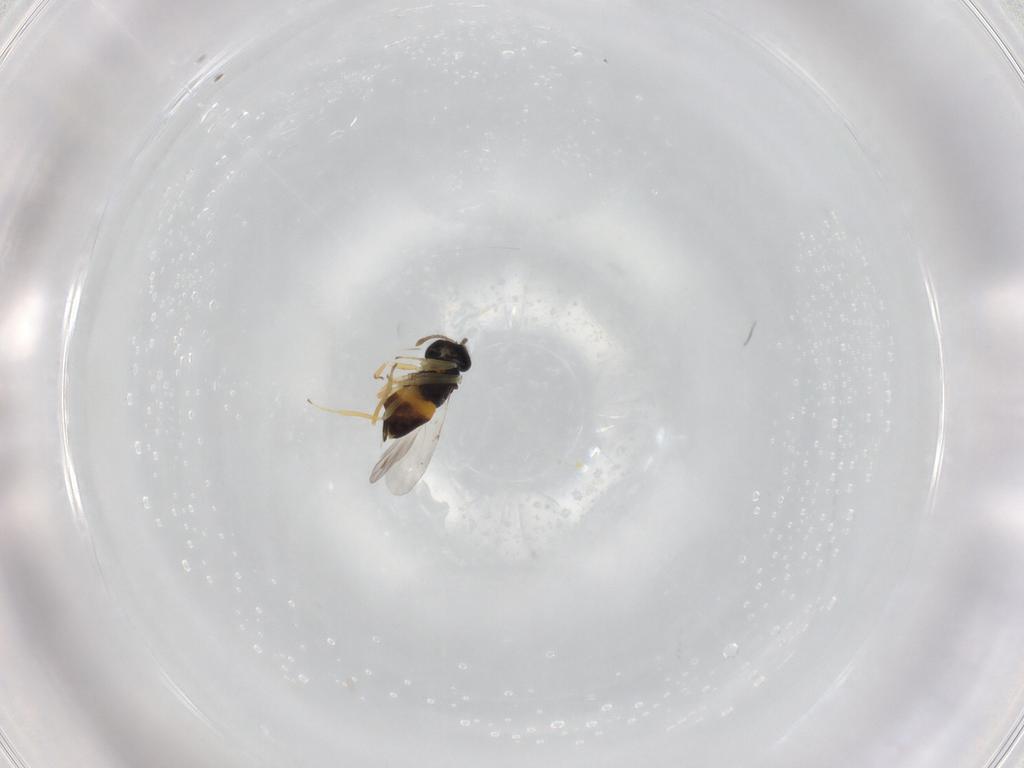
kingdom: Animalia
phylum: Arthropoda
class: Insecta
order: Hymenoptera
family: Encyrtidae
